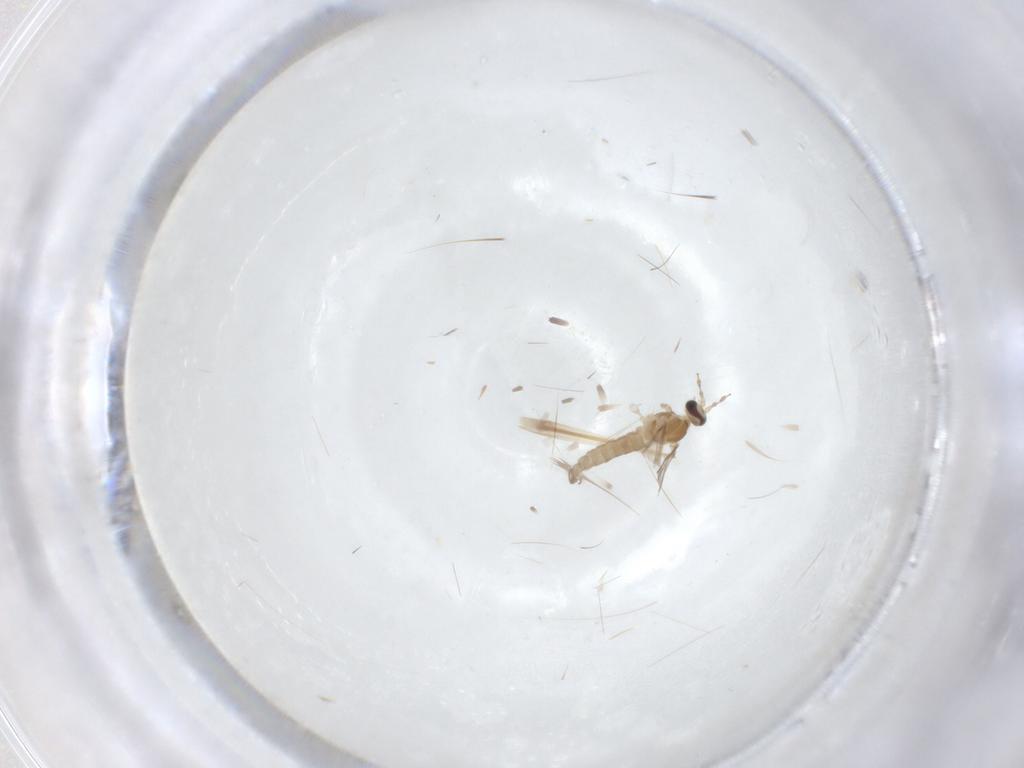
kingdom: Animalia
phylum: Arthropoda
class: Insecta
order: Diptera
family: Cecidomyiidae
